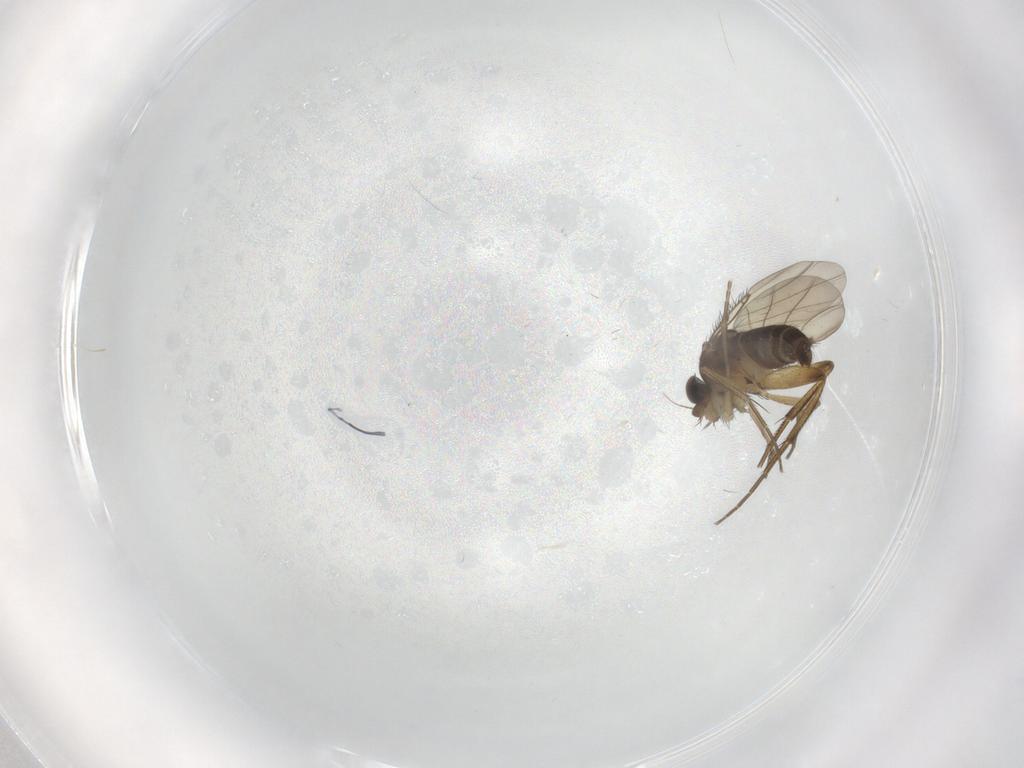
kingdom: Animalia
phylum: Arthropoda
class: Insecta
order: Diptera
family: Phoridae
